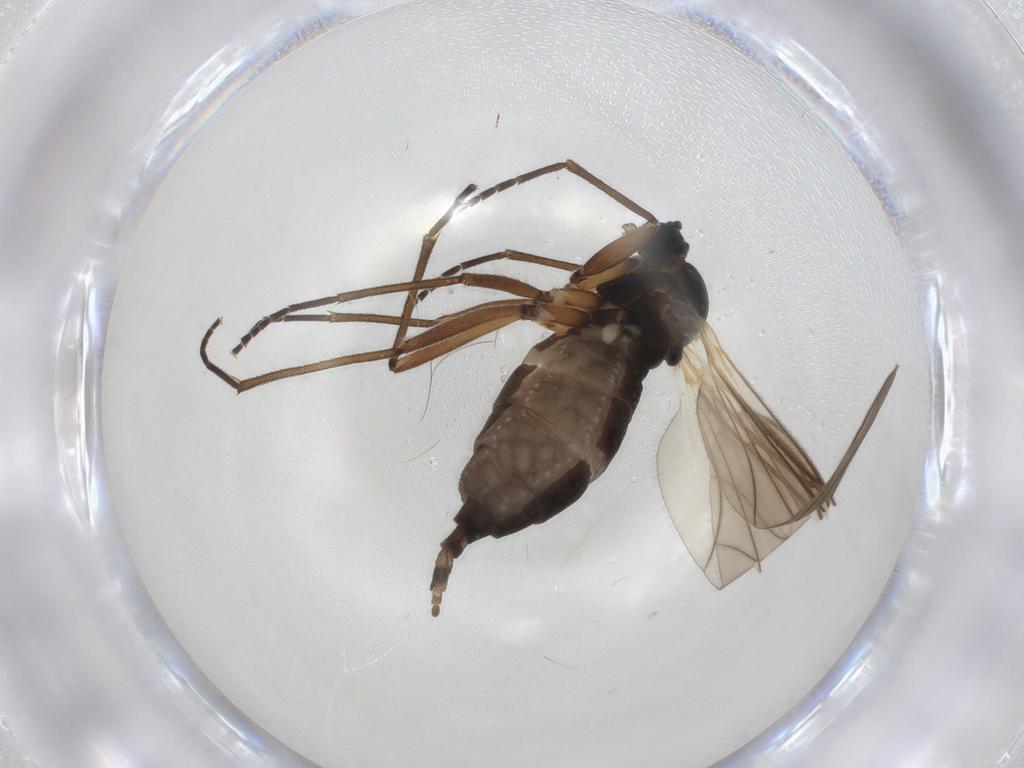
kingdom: Animalia
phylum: Arthropoda
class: Insecta
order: Diptera
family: Sciaridae
